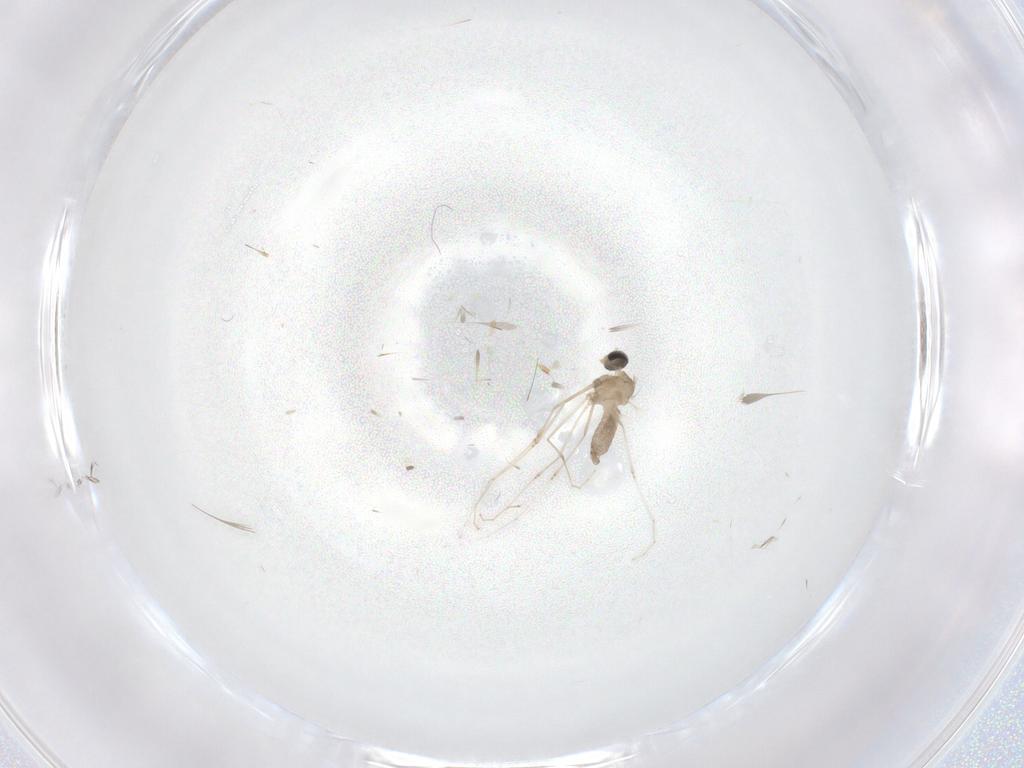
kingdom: Animalia
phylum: Arthropoda
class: Insecta
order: Diptera
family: Cecidomyiidae
